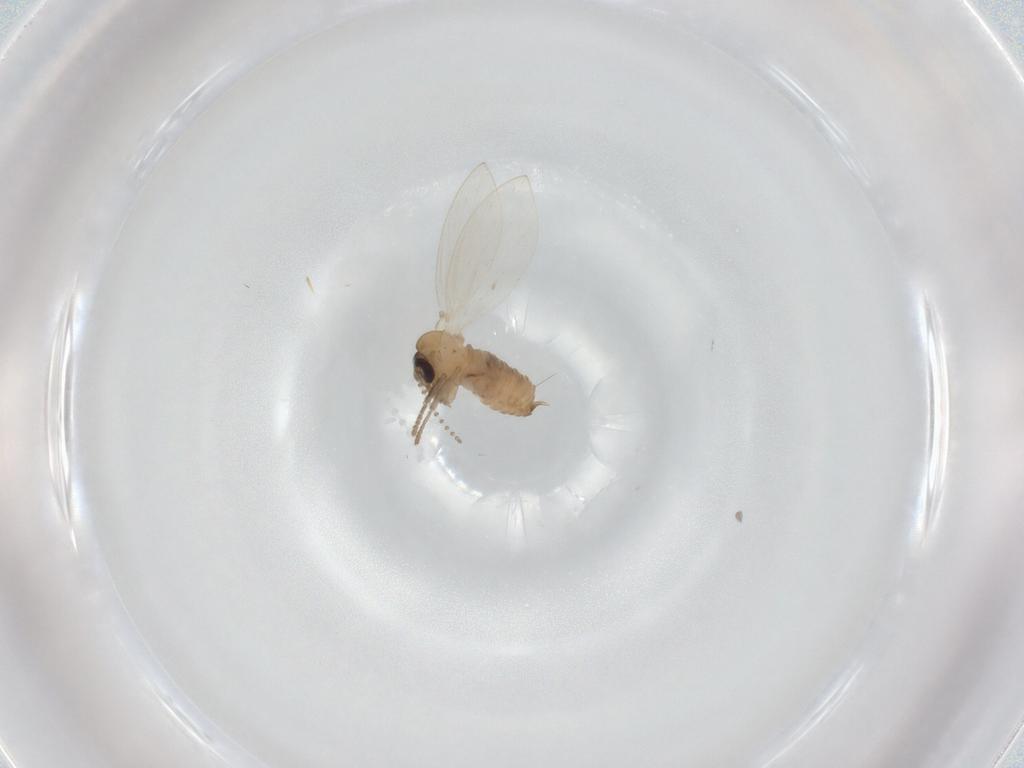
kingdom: Animalia
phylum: Arthropoda
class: Insecta
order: Diptera
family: Psychodidae
